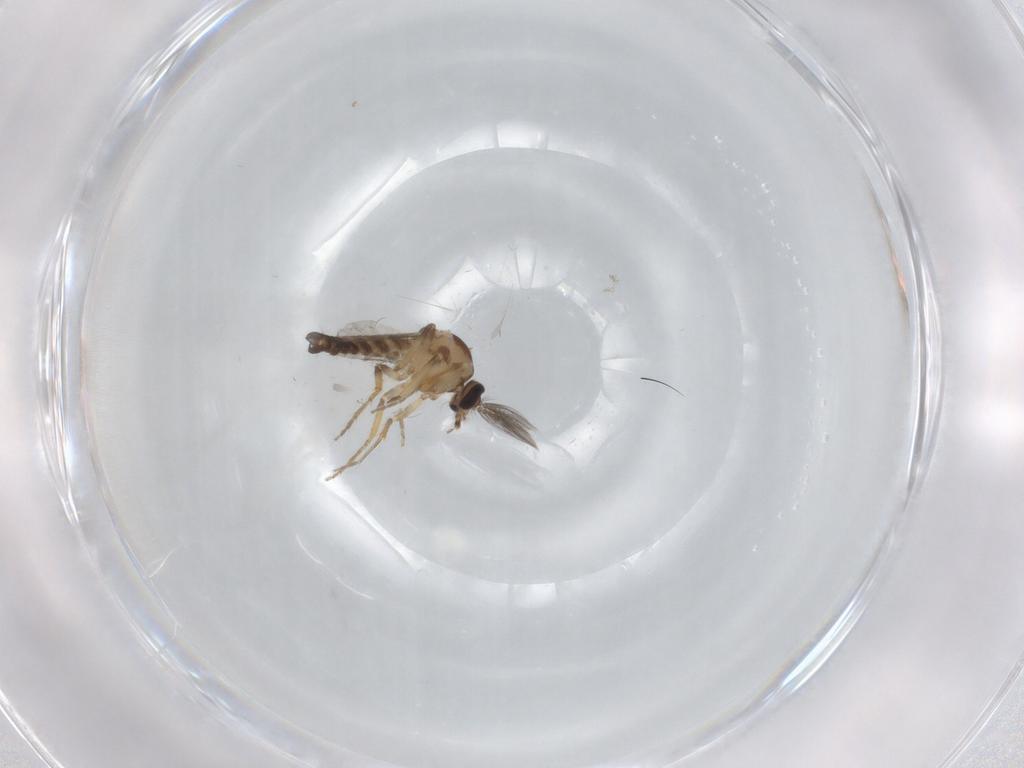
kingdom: Animalia
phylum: Arthropoda
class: Insecta
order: Diptera
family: Ceratopogonidae
